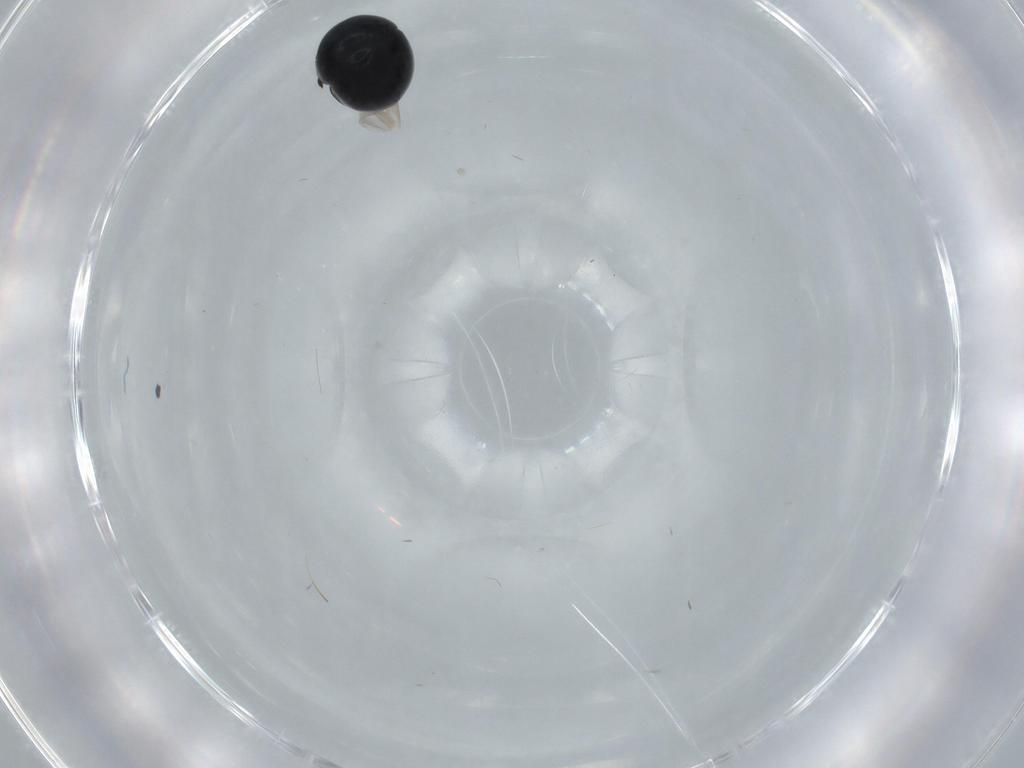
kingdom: Animalia
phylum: Arthropoda
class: Insecta
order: Coleoptera
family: Cybocephalidae
